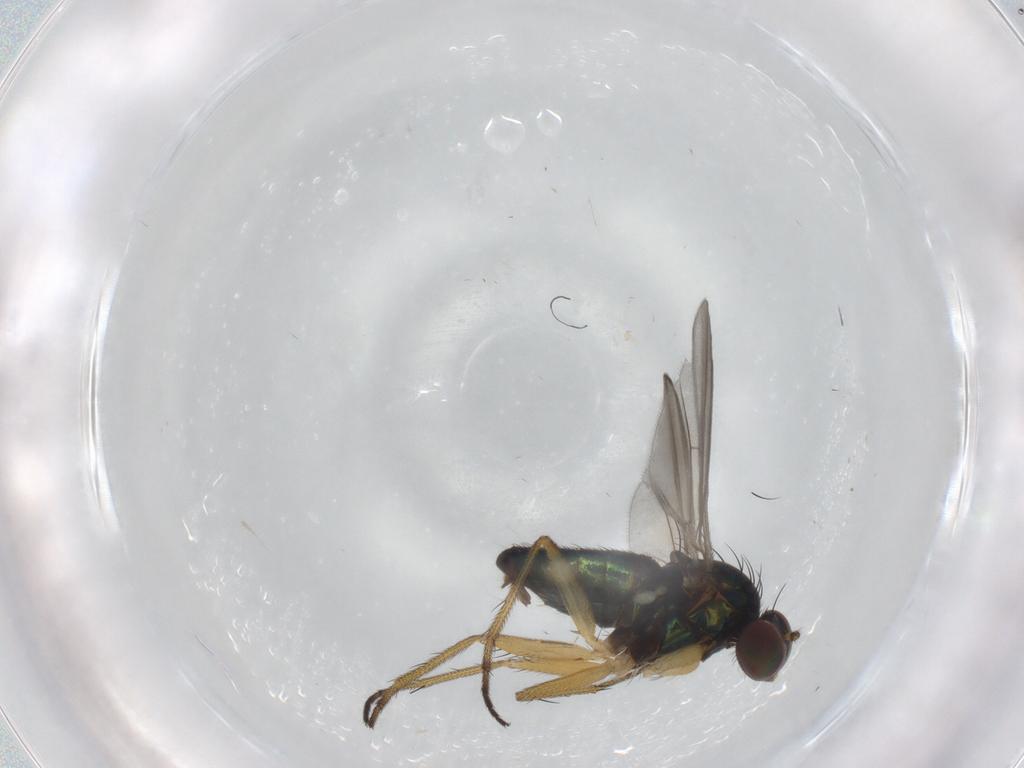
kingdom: Animalia
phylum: Arthropoda
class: Insecta
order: Diptera
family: Dolichopodidae
